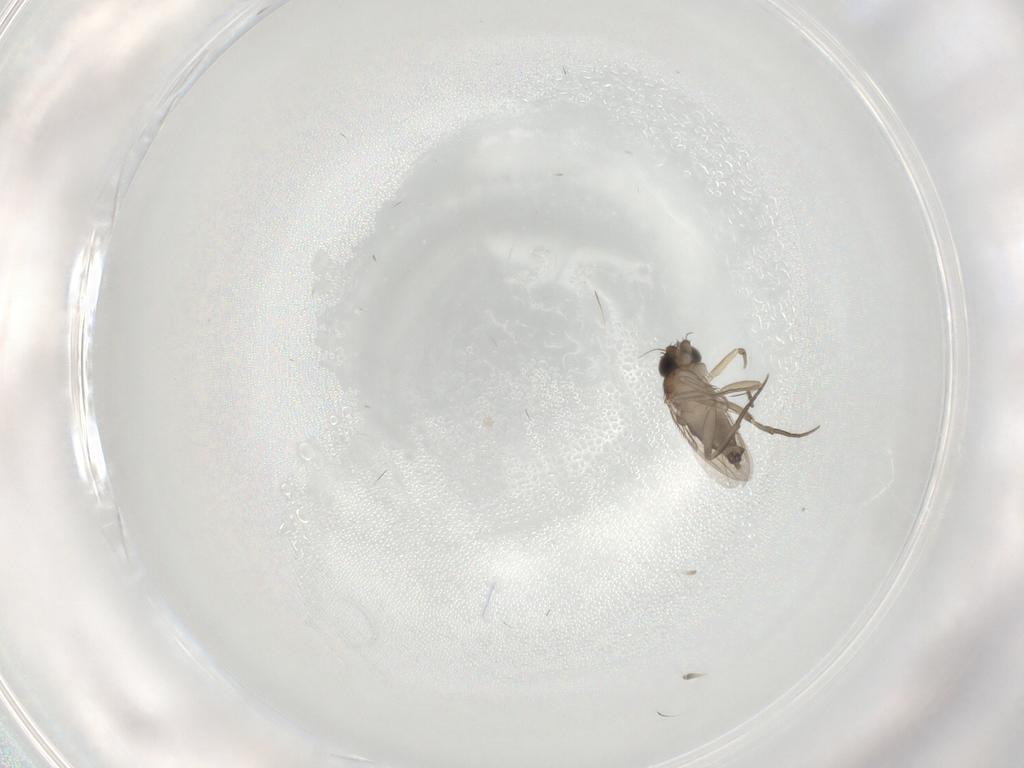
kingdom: Animalia
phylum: Arthropoda
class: Insecta
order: Diptera
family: Phoridae
